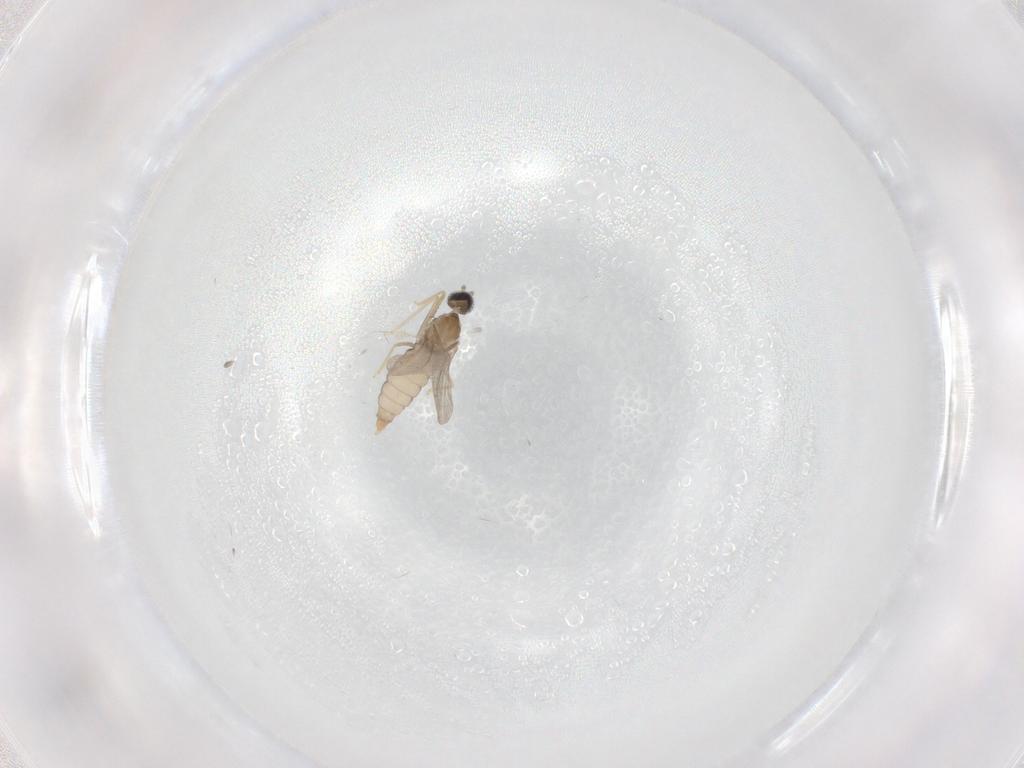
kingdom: Animalia
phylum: Arthropoda
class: Insecta
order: Diptera
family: Cecidomyiidae
